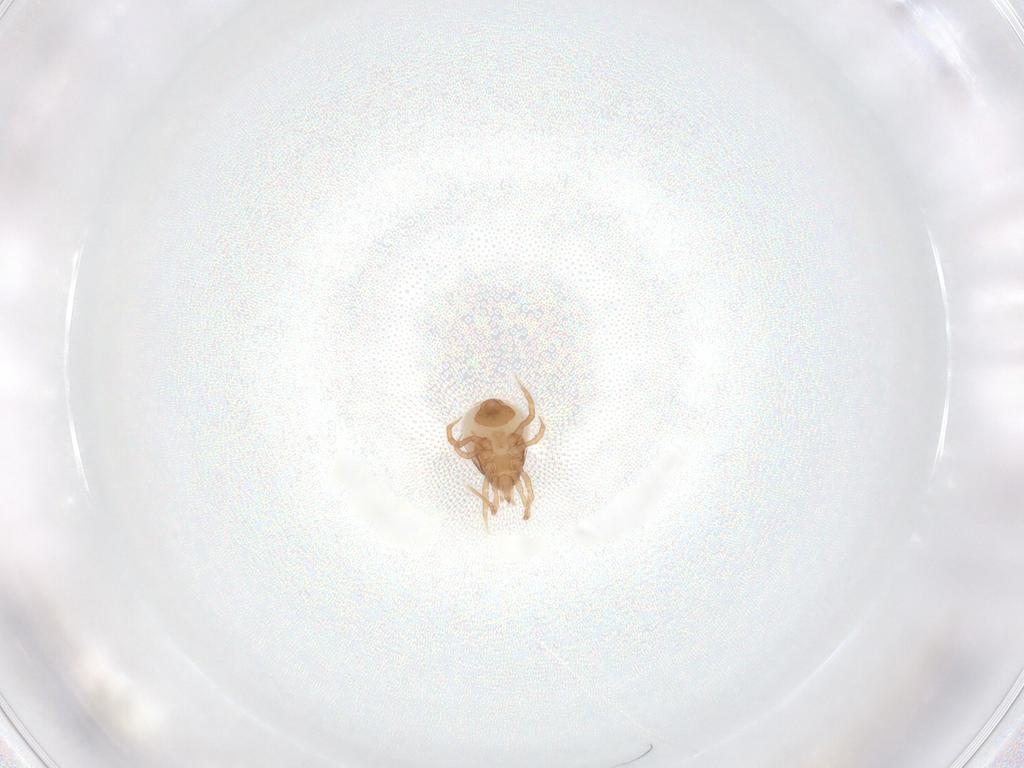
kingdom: Animalia
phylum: Arthropoda
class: Arachnida
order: Mesostigmata
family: Blattisociidae
